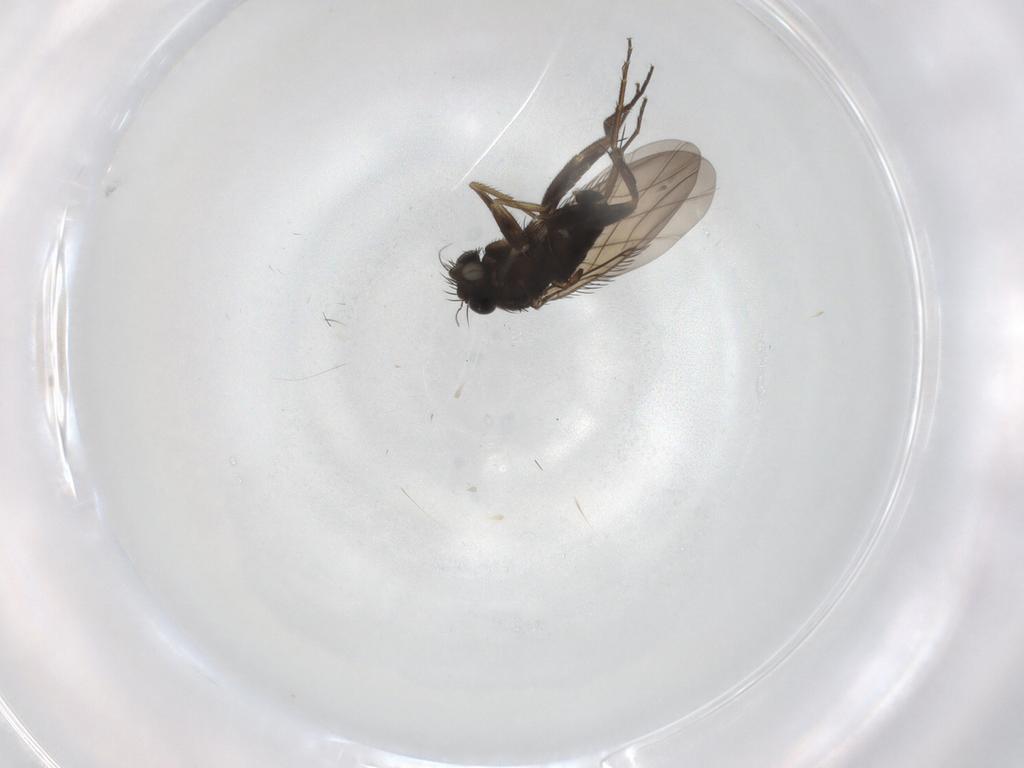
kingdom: Animalia
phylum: Arthropoda
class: Insecta
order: Diptera
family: Phoridae
